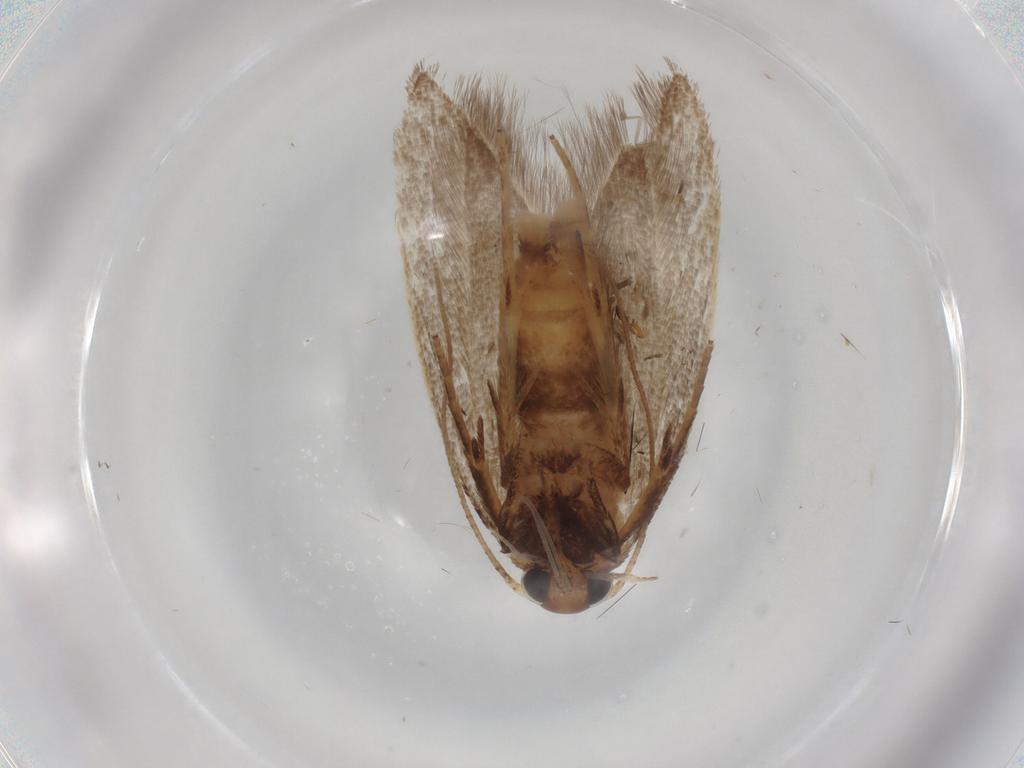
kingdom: Animalia
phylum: Arthropoda
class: Insecta
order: Lepidoptera
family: Oecophoridae
